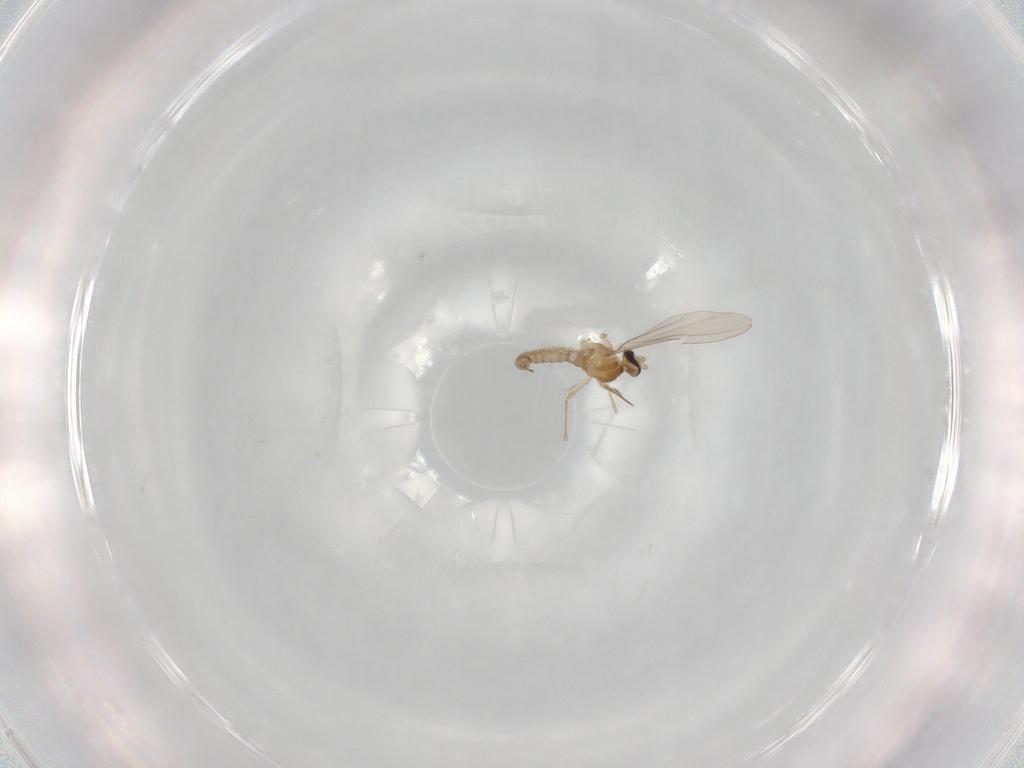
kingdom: Animalia
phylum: Arthropoda
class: Insecta
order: Diptera
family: Cecidomyiidae
